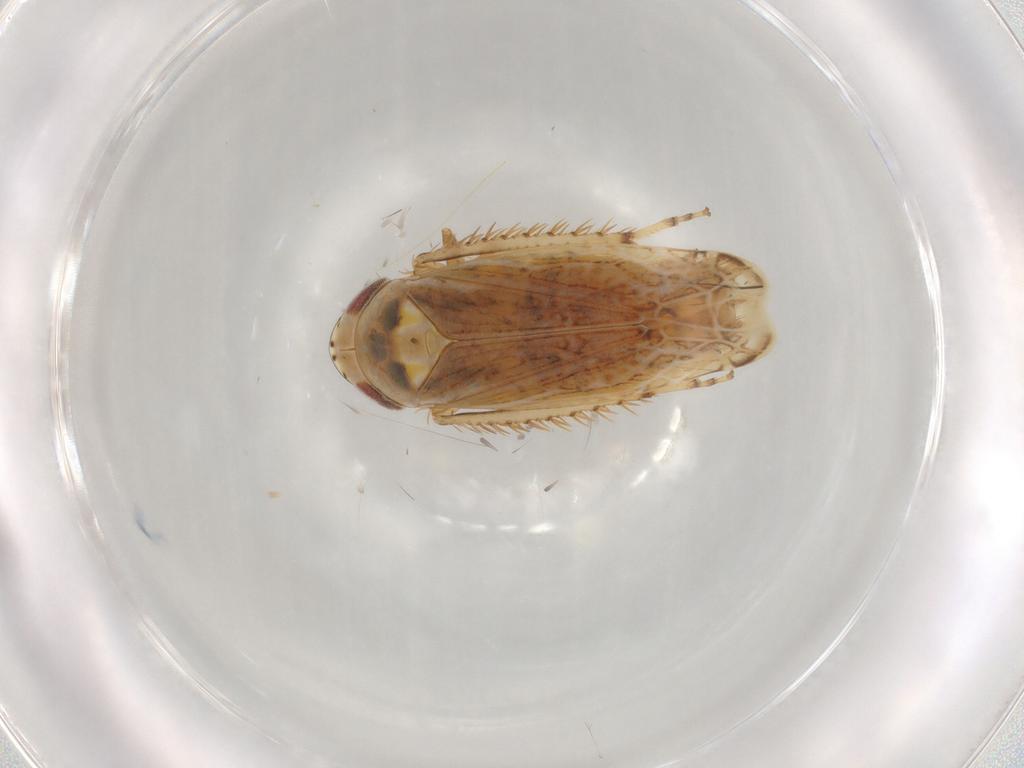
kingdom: Animalia
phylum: Arthropoda
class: Insecta
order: Hemiptera
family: Cicadellidae
